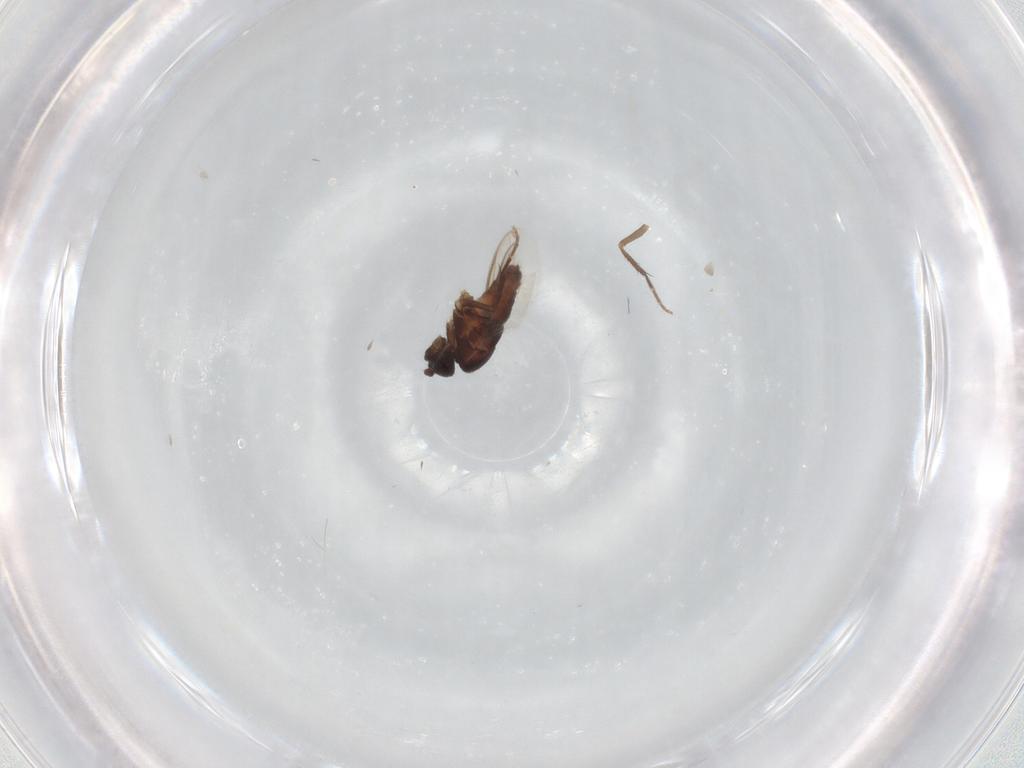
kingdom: Animalia
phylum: Arthropoda
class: Insecta
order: Diptera
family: Sphaeroceridae
